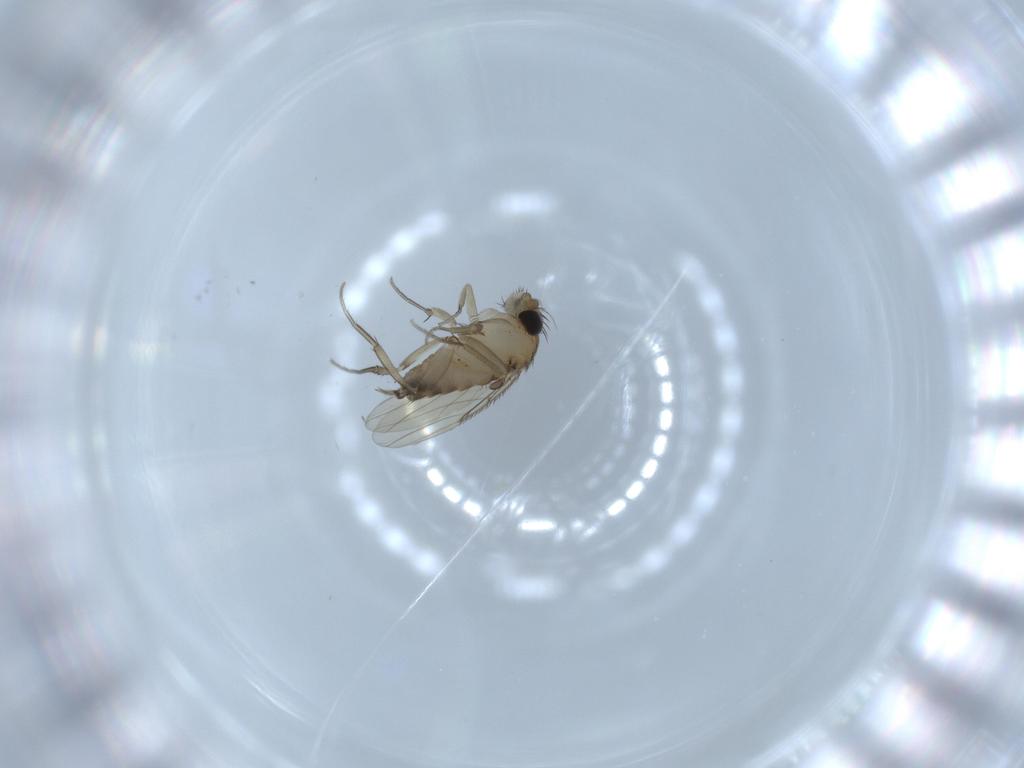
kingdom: Animalia
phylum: Arthropoda
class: Insecta
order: Diptera
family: Phoridae
